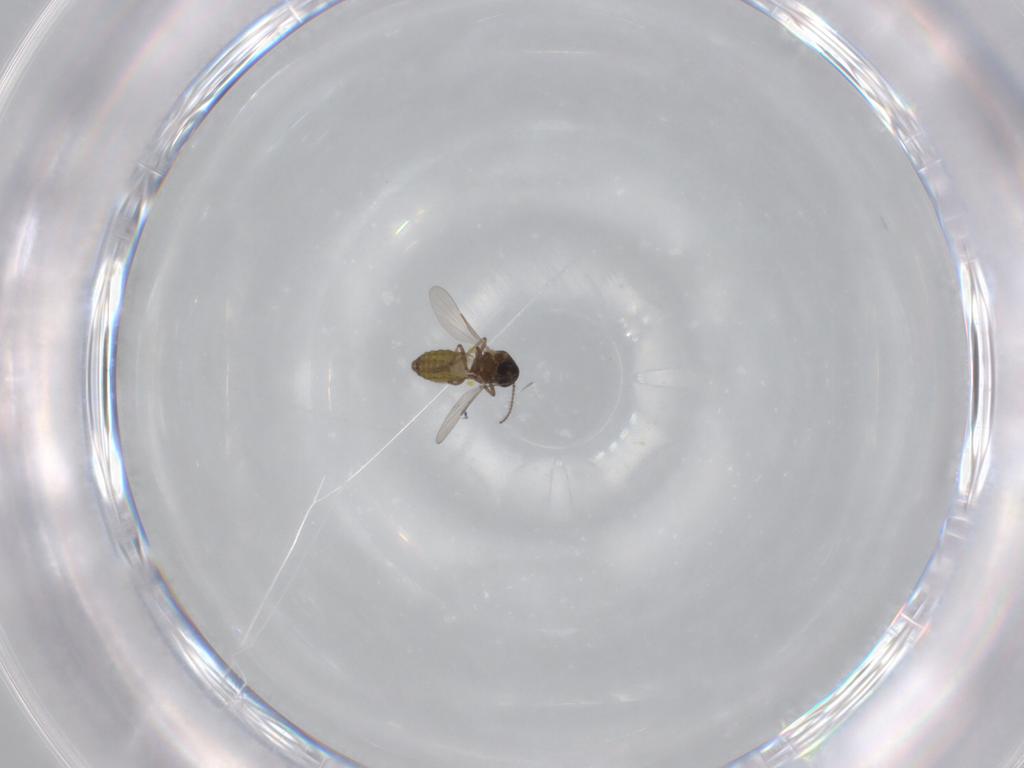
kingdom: Animalia
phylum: Arthropoda
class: Insecta
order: Diptera
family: Ceratopogonidae
